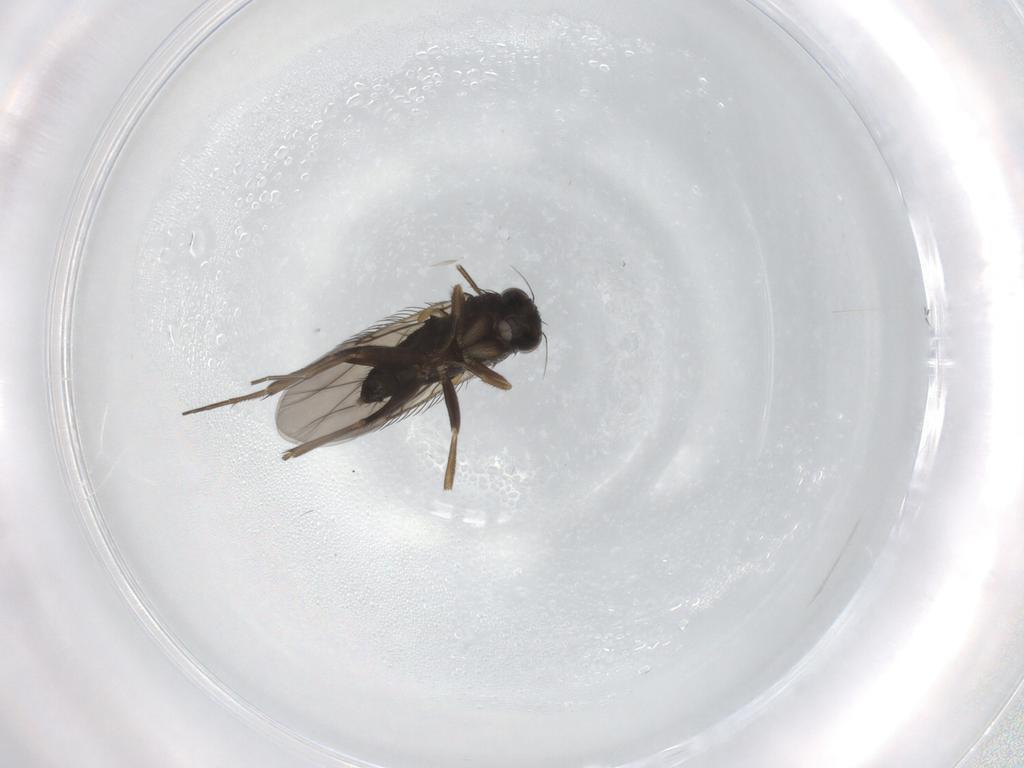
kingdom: Animalia
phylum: Arthropoda
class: Insecta
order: Diptera
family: Phoridae
